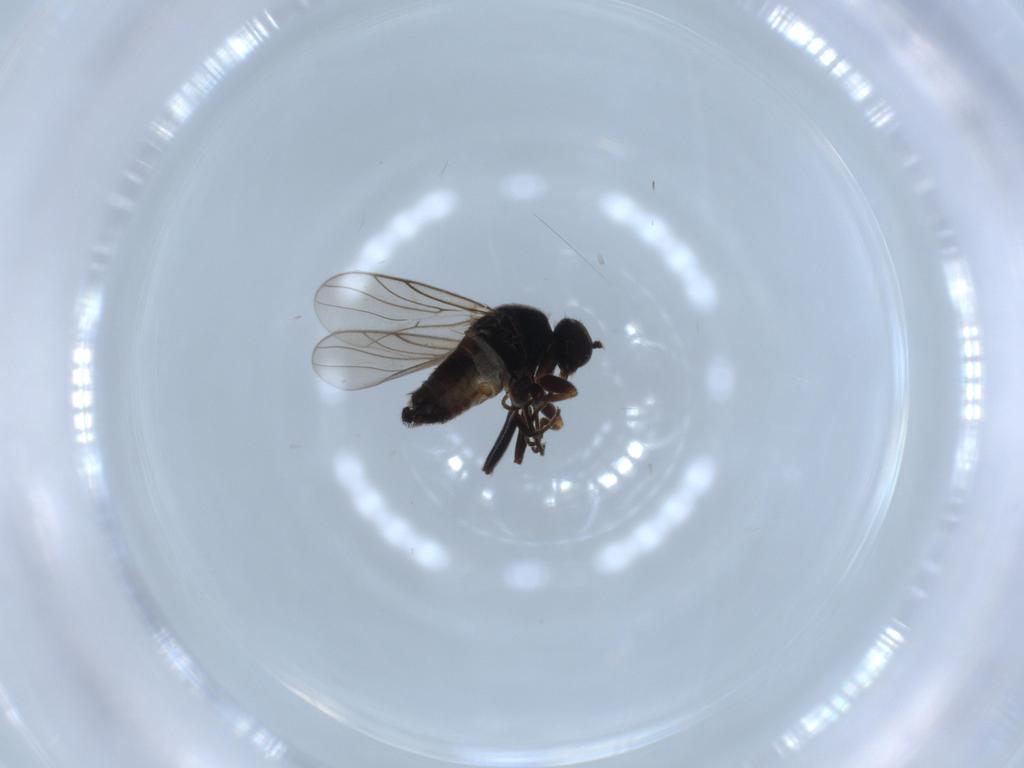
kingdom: Animalia
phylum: Arthropoda
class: Insecta
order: Diptera
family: Hybotidae
